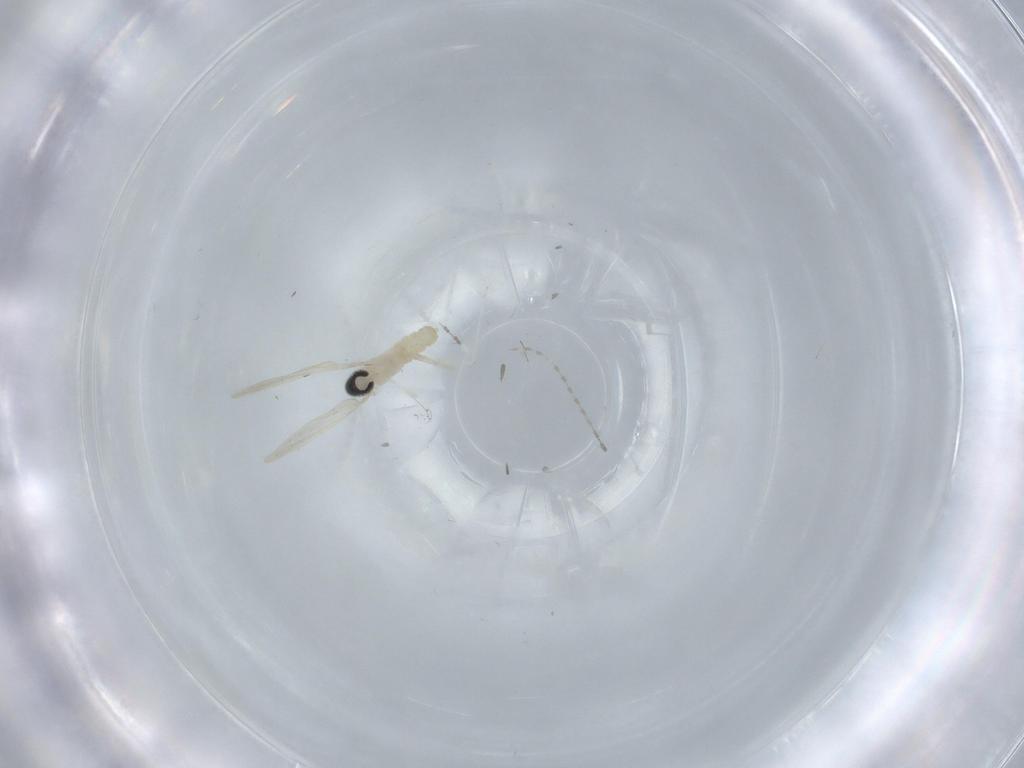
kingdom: Animalia
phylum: Arthropoda
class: Insecta
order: Diptera
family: Cecidomyiidae
